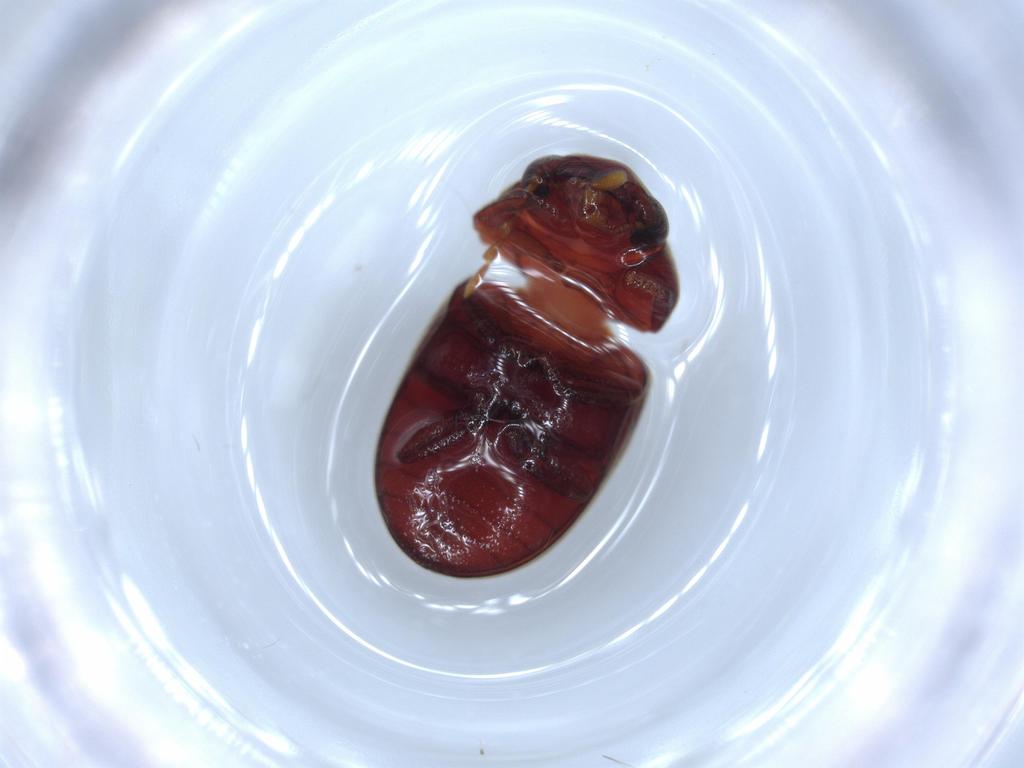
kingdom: Animalia
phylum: Arthropoda
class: Insecta
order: Coleoptera
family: Ptinidae
